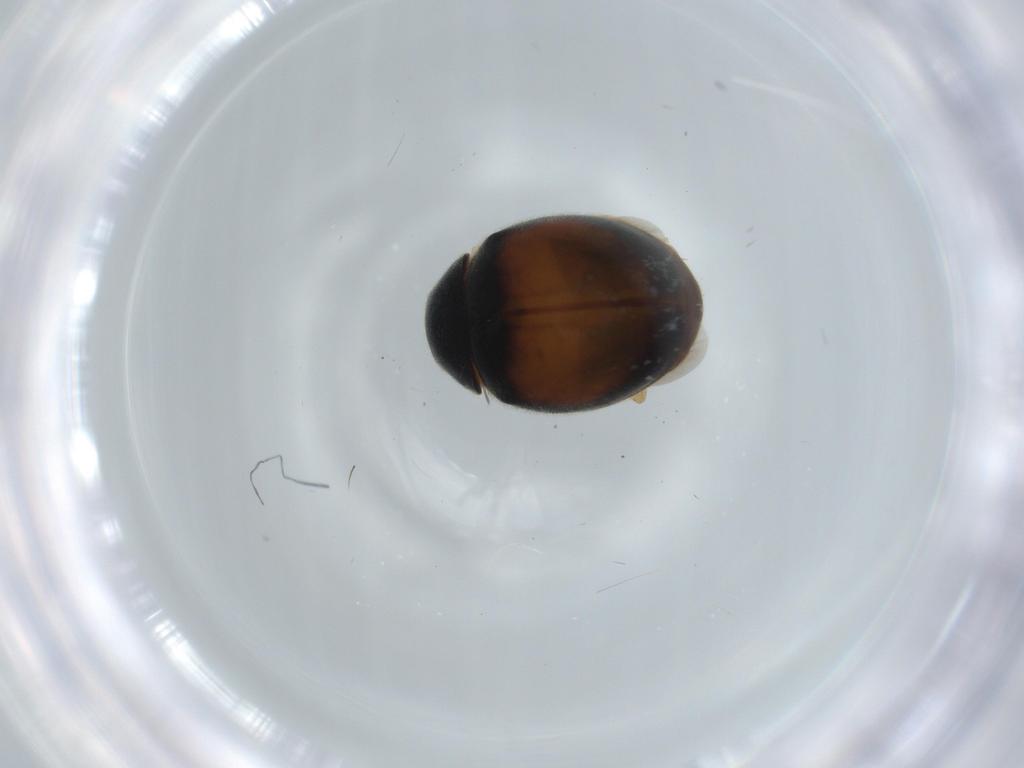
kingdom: Animalia
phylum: Arthropoda
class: Insecta
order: Coleoptera
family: Coccinellidae
